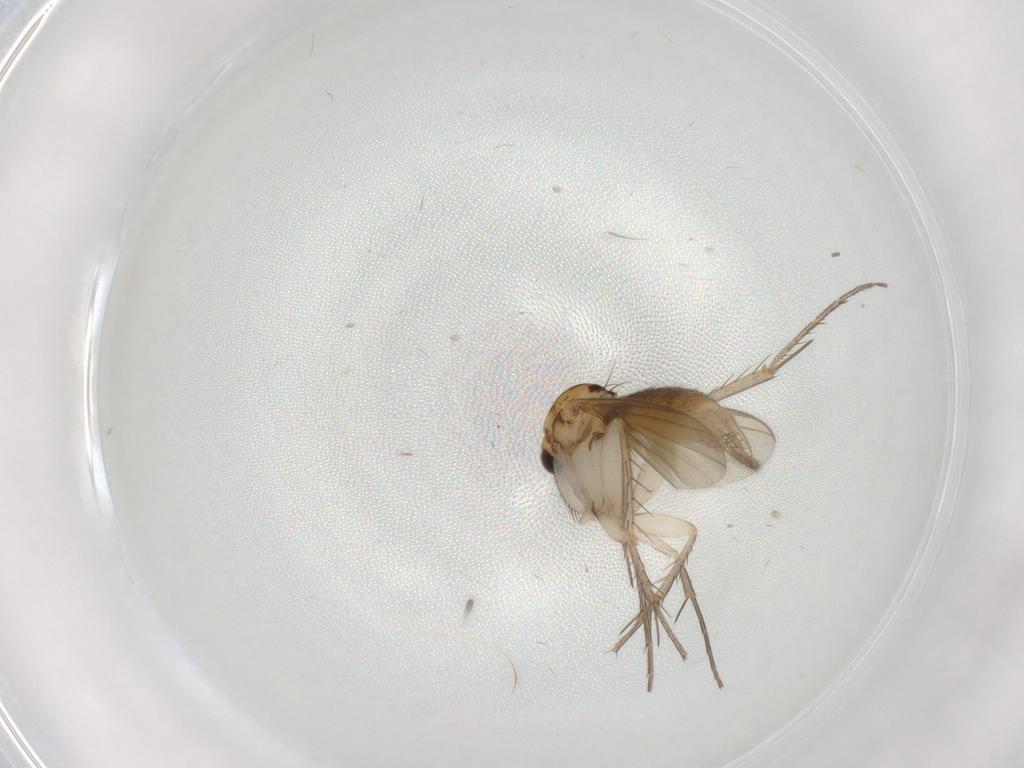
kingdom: Animalia
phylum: Arthropoda
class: Insecta
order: Diptera
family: Mycetophilidae
